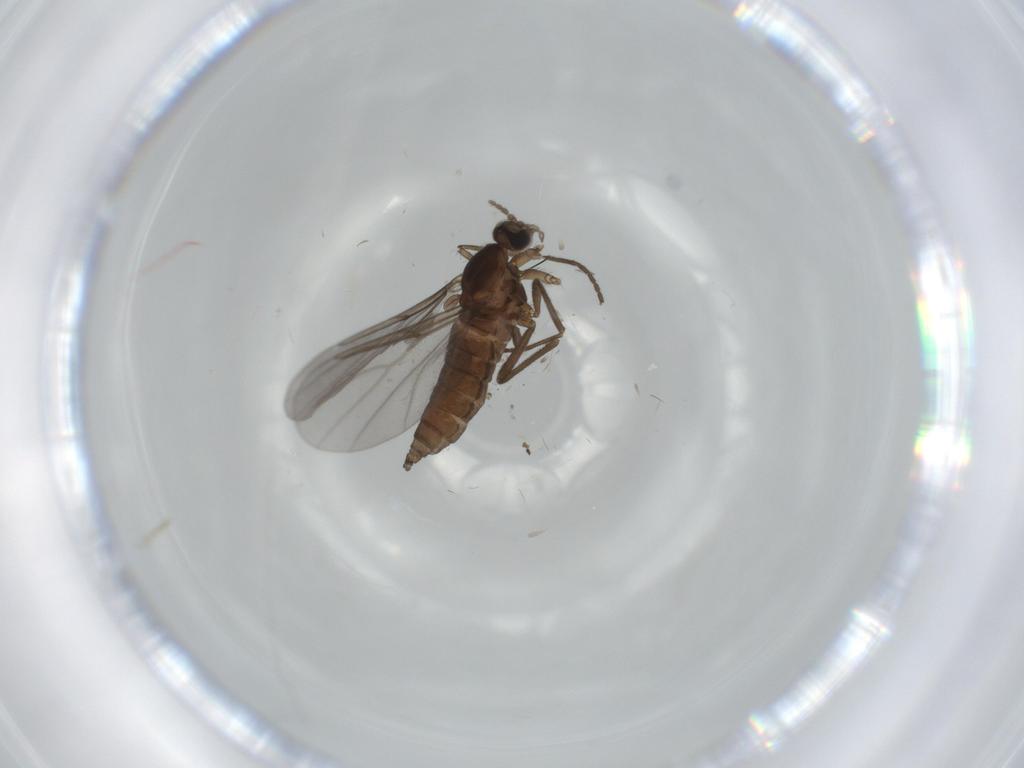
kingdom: Animalia
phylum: Arthropoda
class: Insecta
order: Diptera
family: Cecidomyiidae
